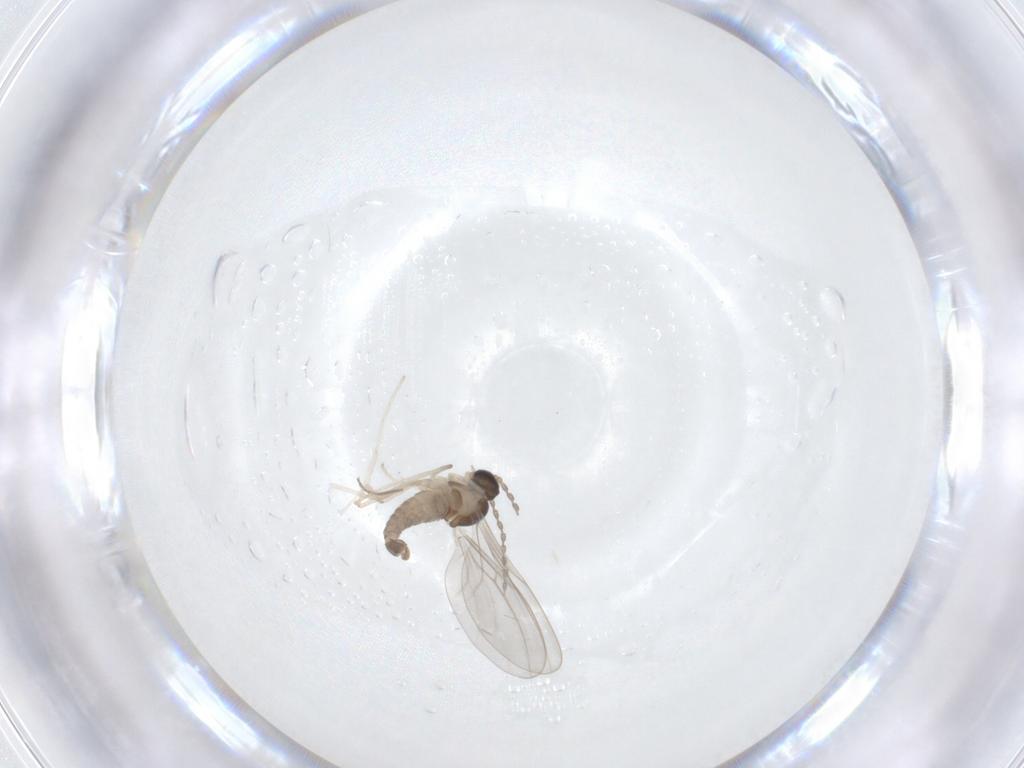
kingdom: Animalia
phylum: Arthropoda
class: Insecta
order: Diptera
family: Cecidomyiidae
